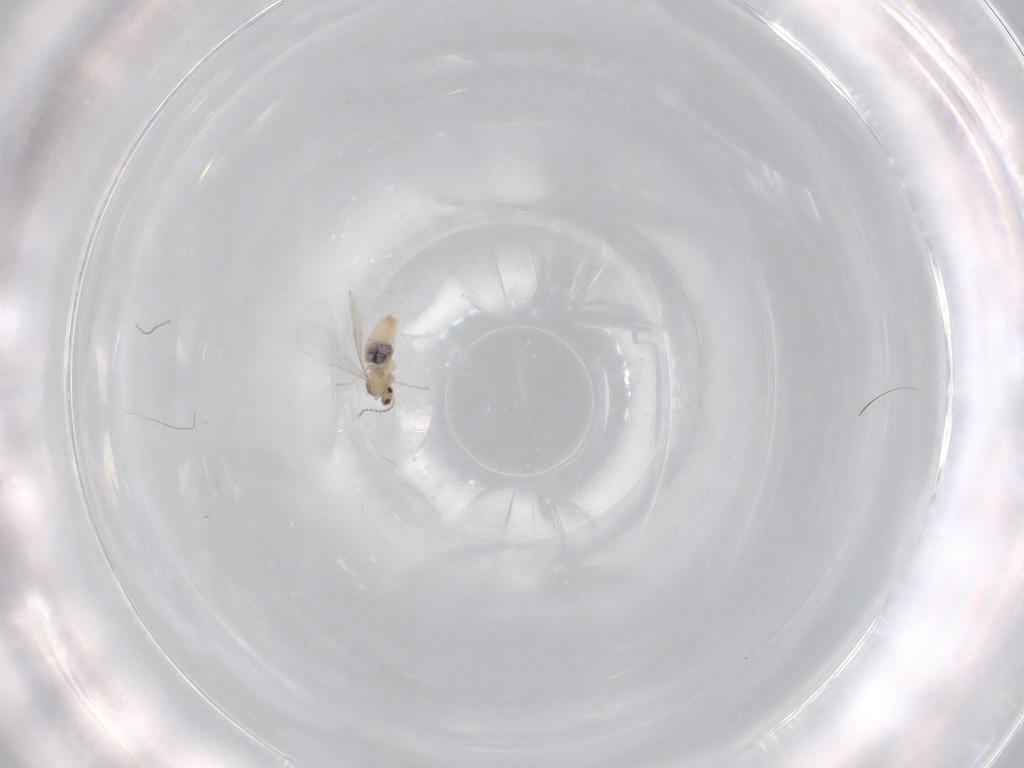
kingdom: Animalia
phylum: Arthropoda
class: Insecta
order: Diptera
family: Cecidomyiidae
